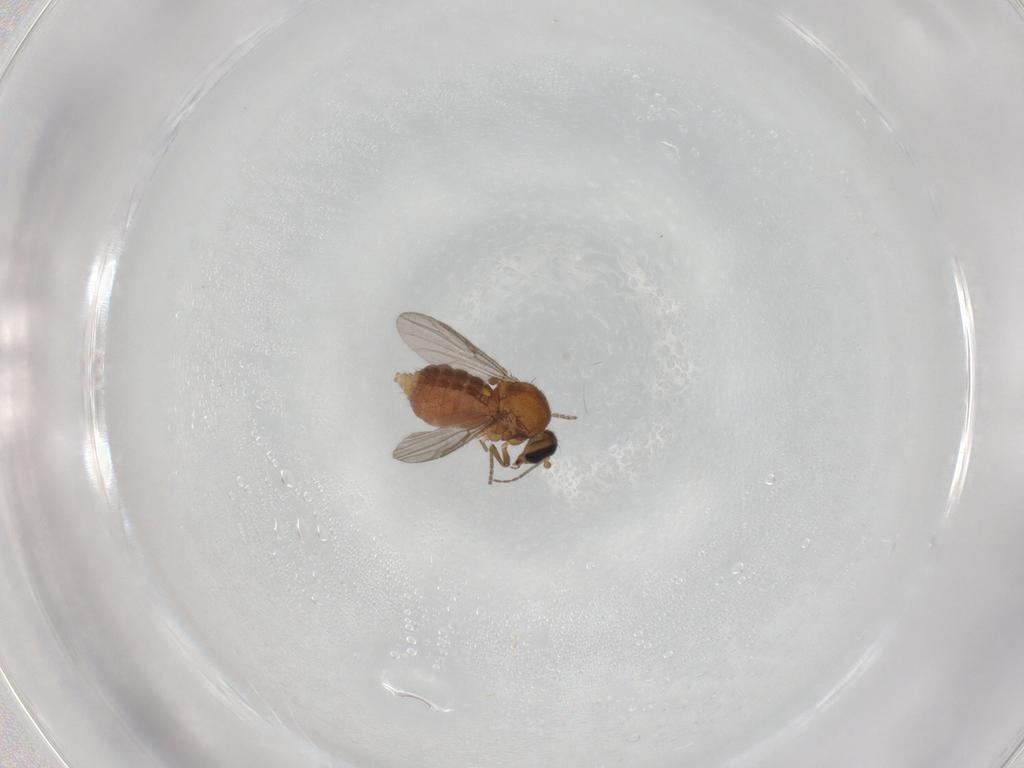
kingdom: Animalia
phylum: Arthropoda
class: Insecta
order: Diptera
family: Ceratopogonidae
